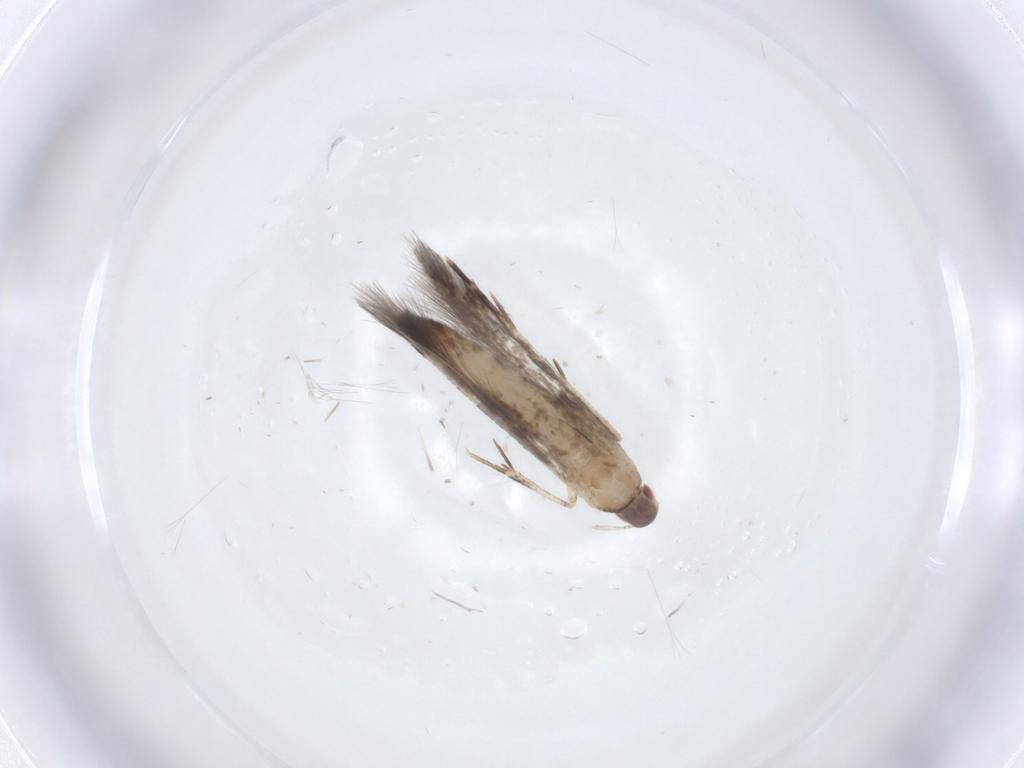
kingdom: Animalia
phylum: Arthropoda
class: Insecta
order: Lepidoptera
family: Cosmopterigidae
